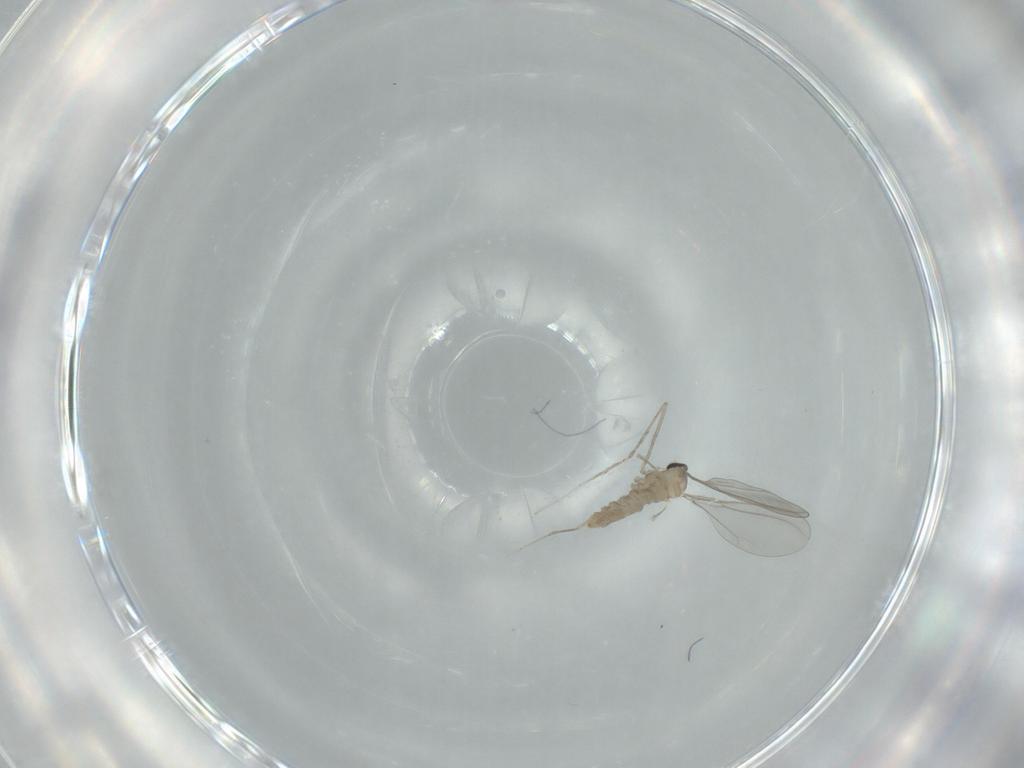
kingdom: Animalia
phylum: Arthropoda
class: Insecta
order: Diptera
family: Cecidomyiidae
